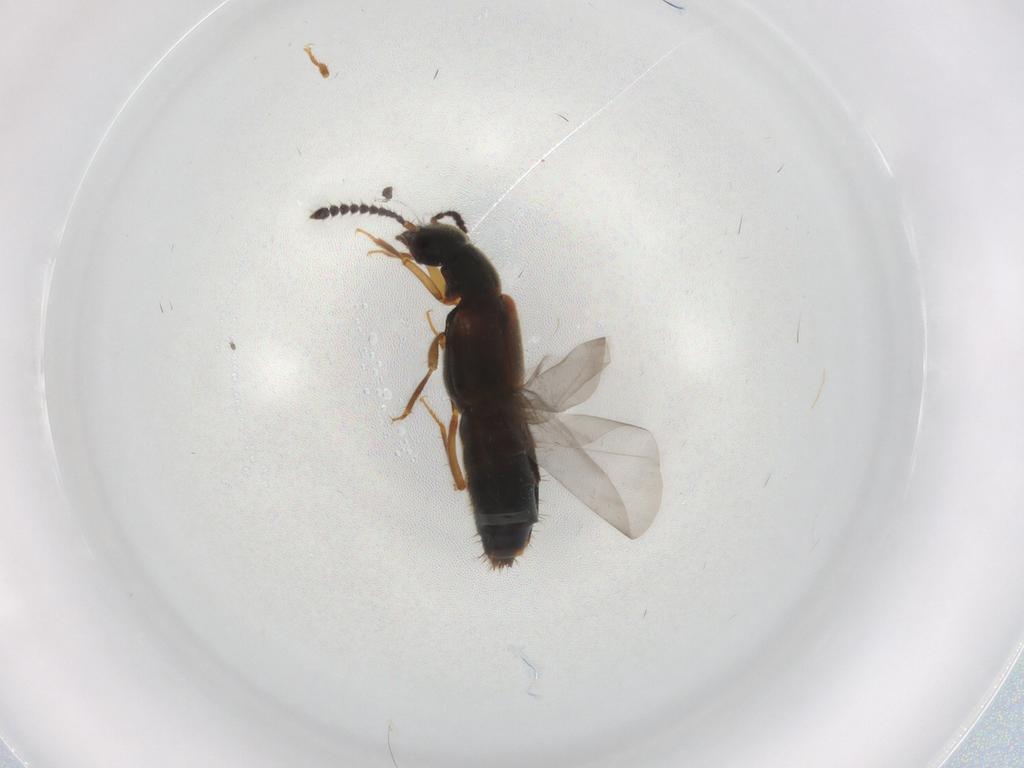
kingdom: Animalia
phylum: Arthropoda
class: Insecta
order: Coleoptera
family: Staphylinidae
